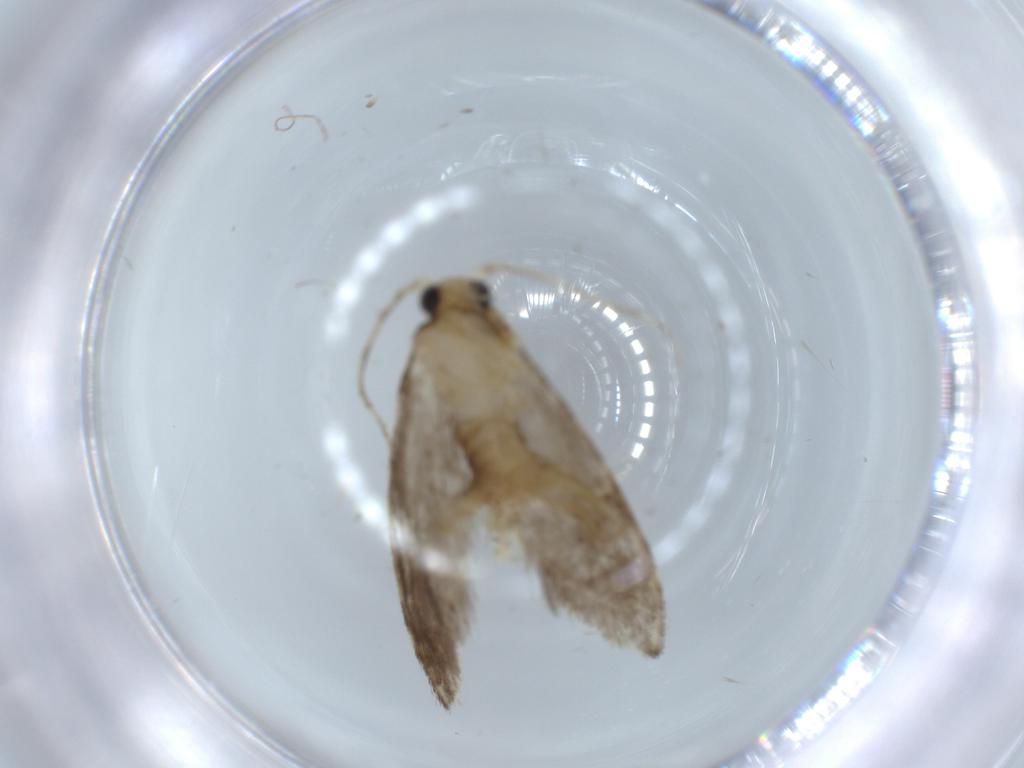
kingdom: Animalia
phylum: Arthropoda
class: Insecta
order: Lepidoptera
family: Tineidae
